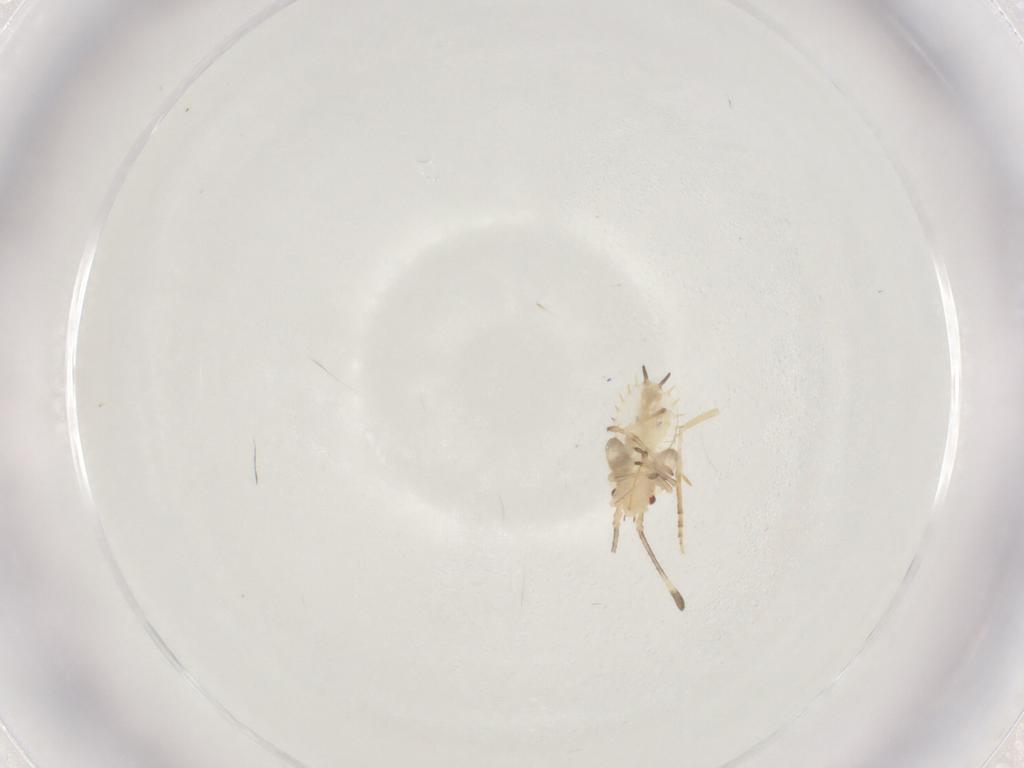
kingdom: Animalia
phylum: Arthropoda
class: Insecta
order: Hemiptera
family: Tingidae
